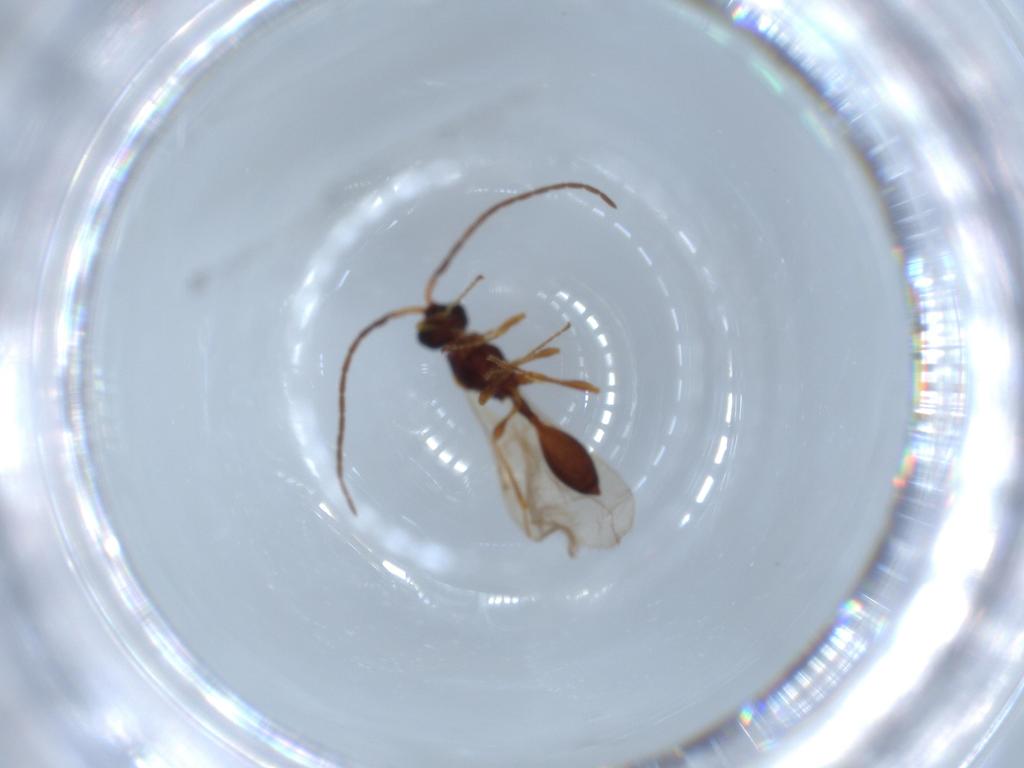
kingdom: Animalia
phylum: Arthropoda
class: Insecta
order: Hymenoptera
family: Diapriidae
